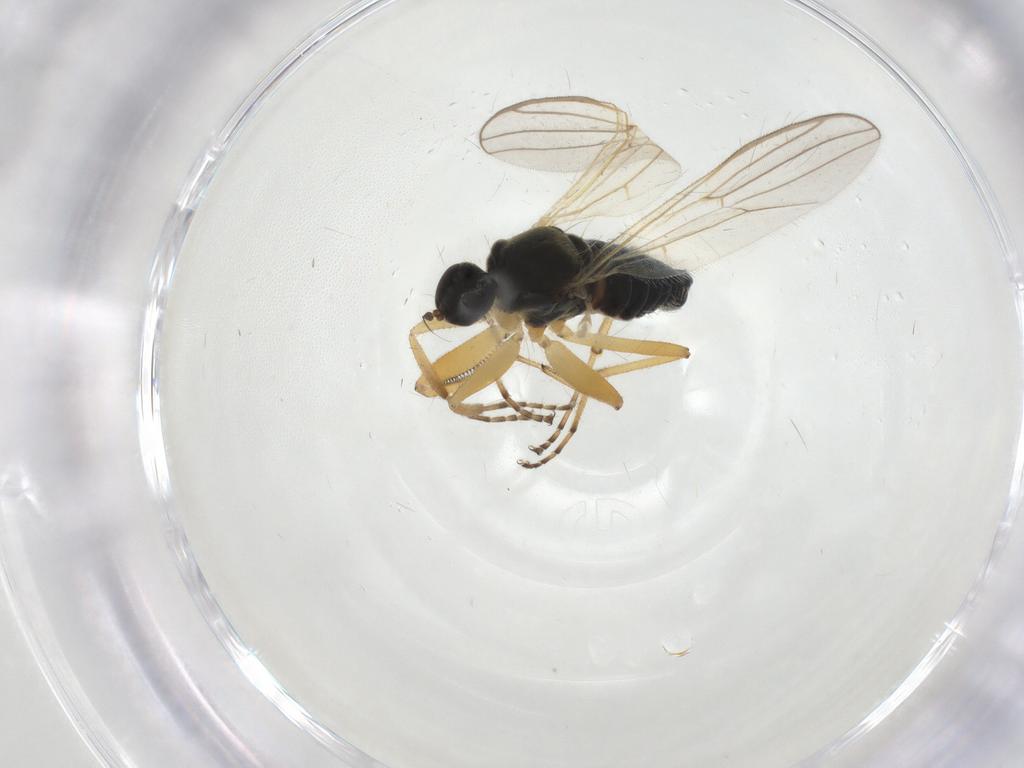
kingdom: Animalia
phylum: Arthropoda
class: Insecta
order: Diptera
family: Hybotidae
